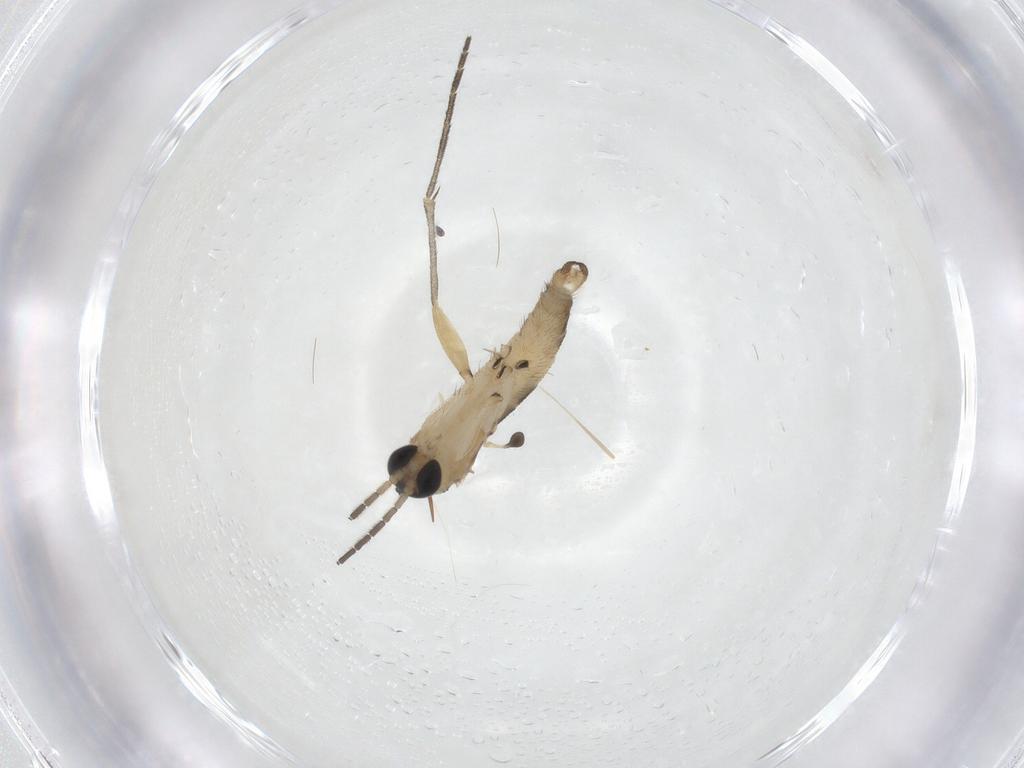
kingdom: Animalia
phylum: Arthropoda
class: Insecta
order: Diptera
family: Sciaridae
